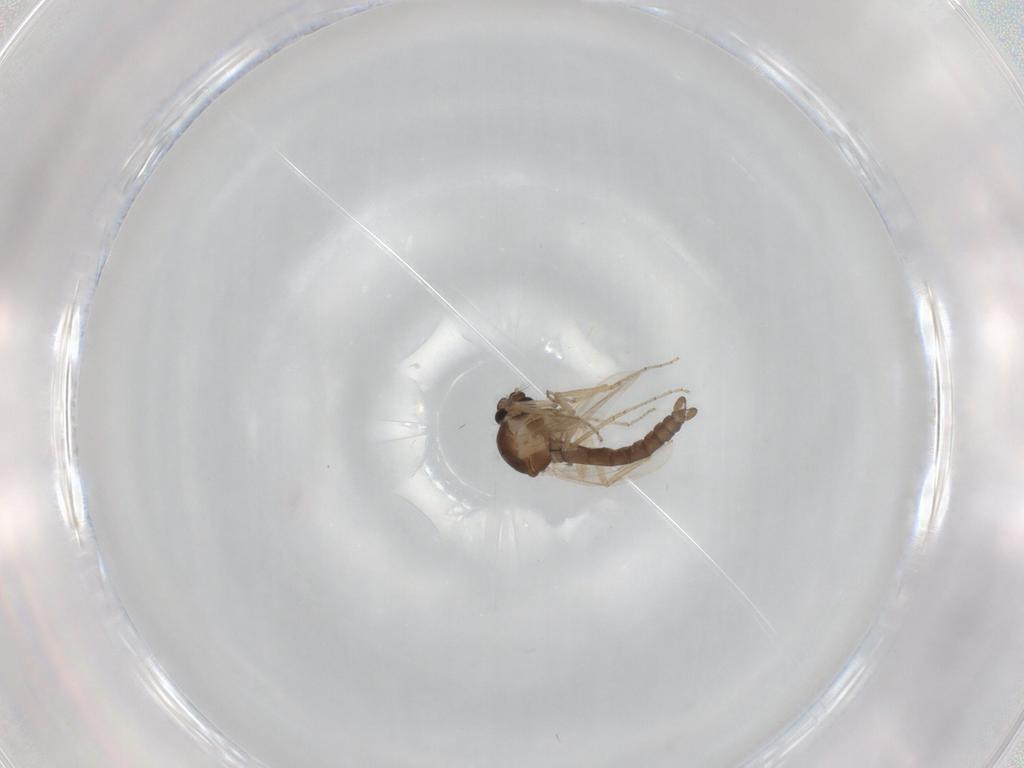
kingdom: Animalia
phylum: Arthropoda
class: Insecta
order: Diptera
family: Ceratopogonidae
